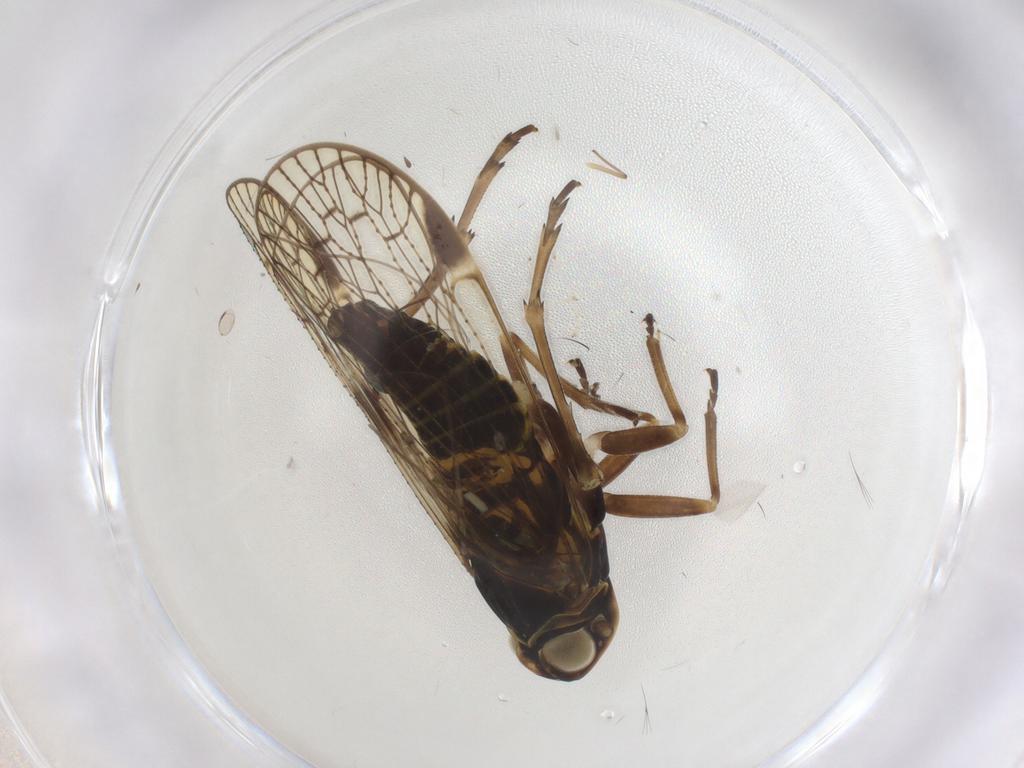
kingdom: Animalia
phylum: Arthropoda
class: Insecta
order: Hemiptera
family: Cixiidae
